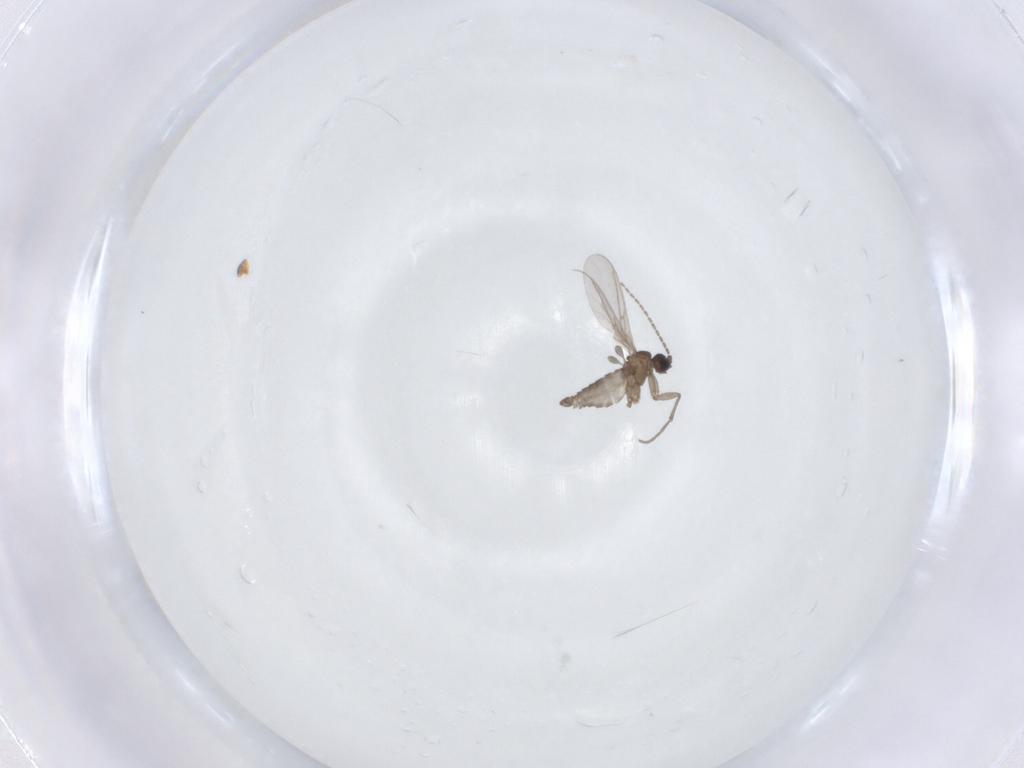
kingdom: Animalia
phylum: Arthropoda
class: Insecta
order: Diptera
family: Sciaridae
